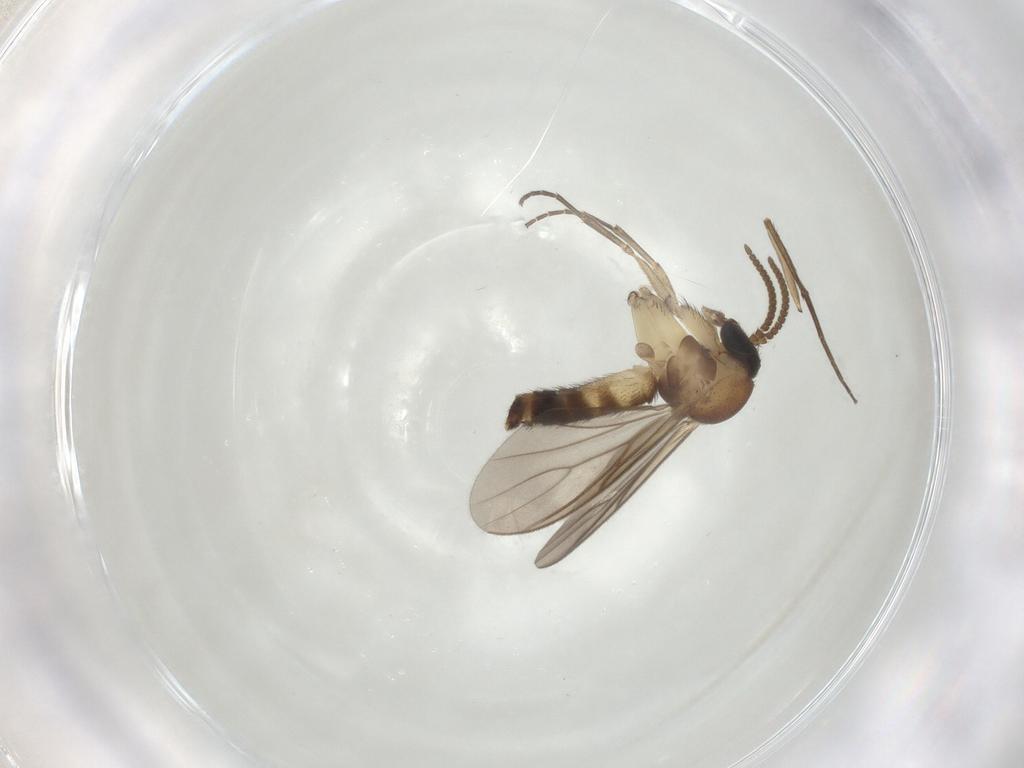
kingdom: Animalia
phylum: Arthropoda
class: Insecta
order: Diptera
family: Mycetophilidae
